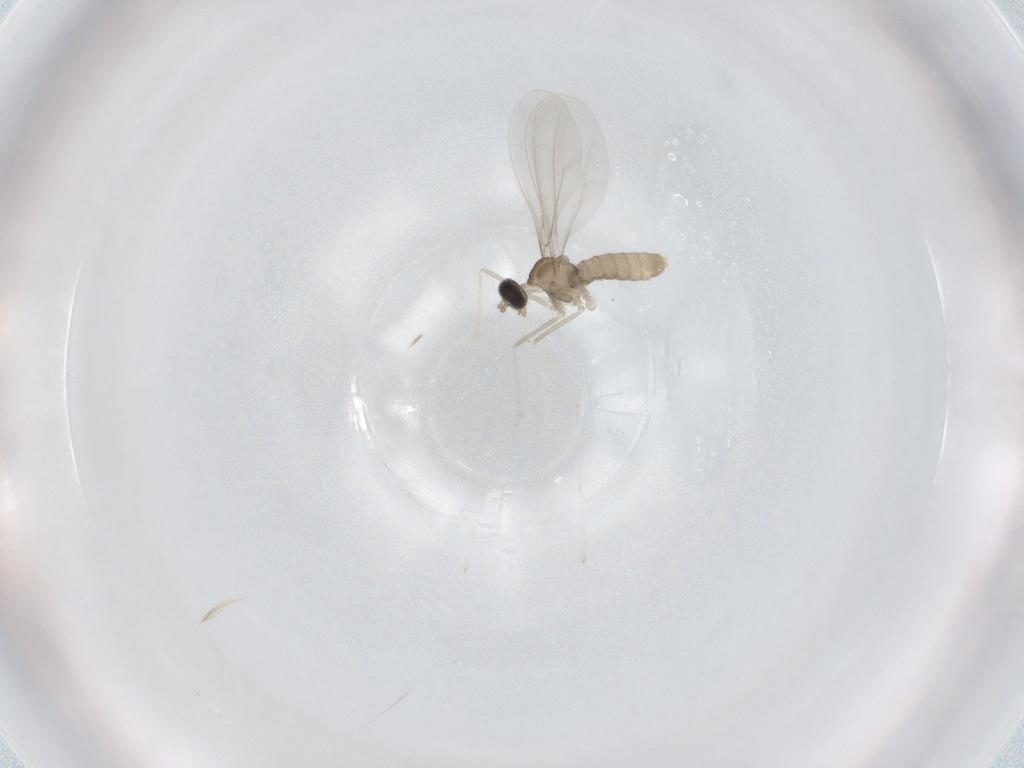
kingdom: Animalia
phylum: Arthropoda
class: Insecta
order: Diptera
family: Cecidomyiidae
